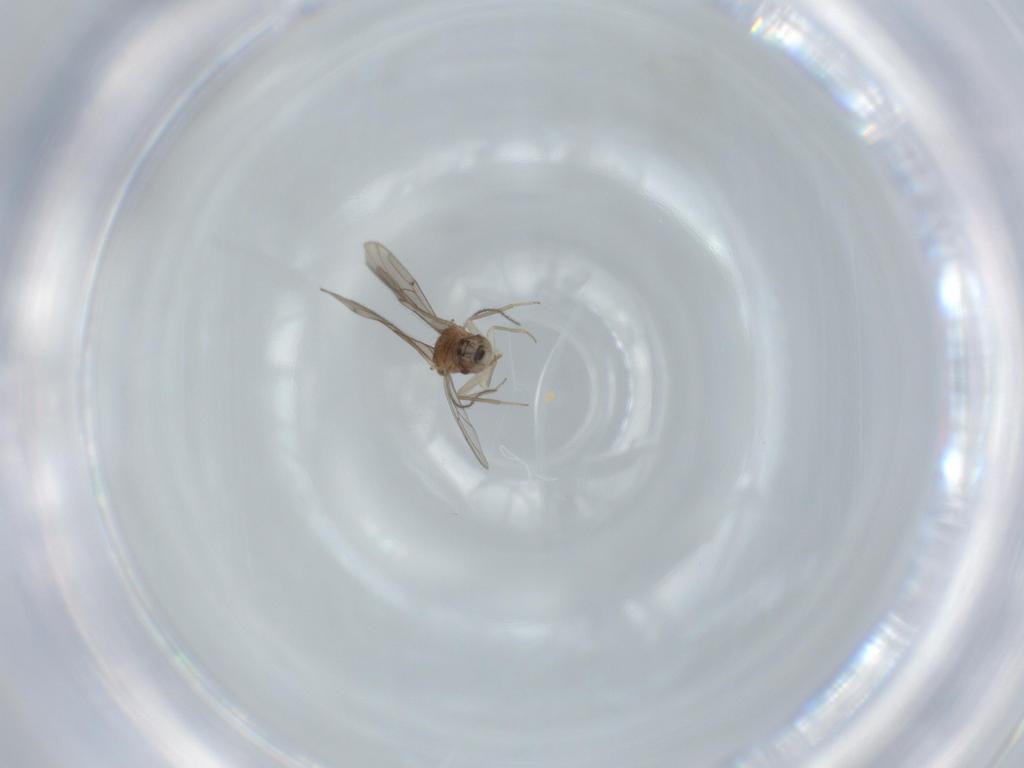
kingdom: Animalia
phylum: Arthropoda
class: Insecta
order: Psocodea
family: Ectopsocidae
